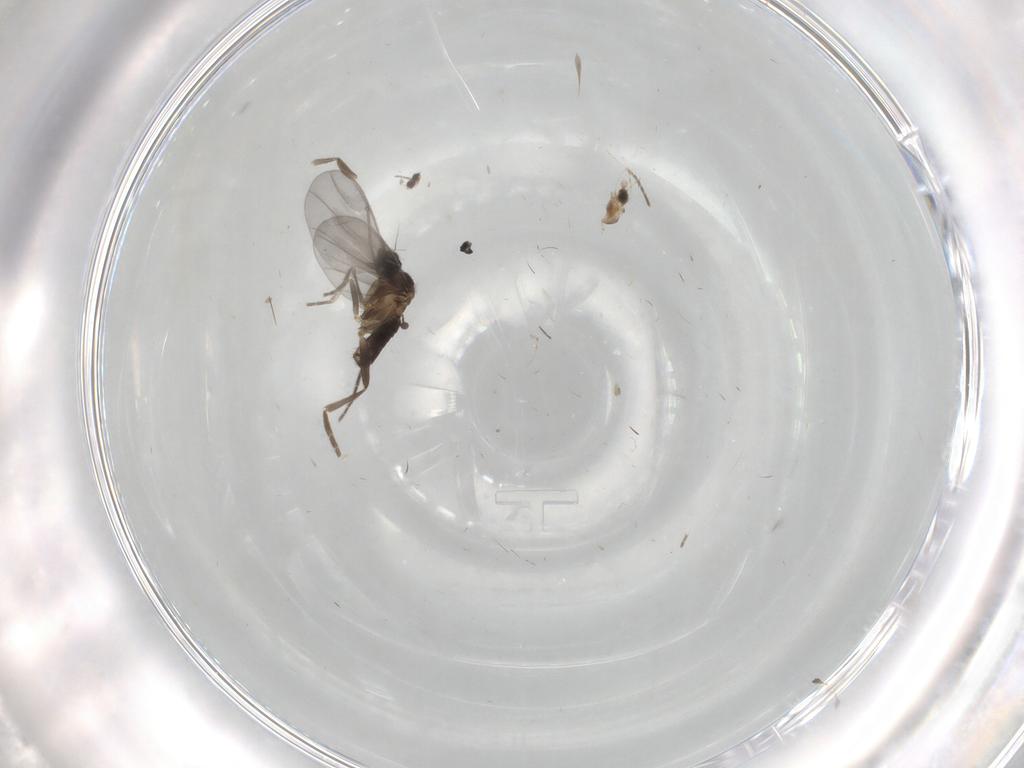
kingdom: Animalia
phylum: Arthropoda
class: Insecta
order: Diptera
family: Phoridae
